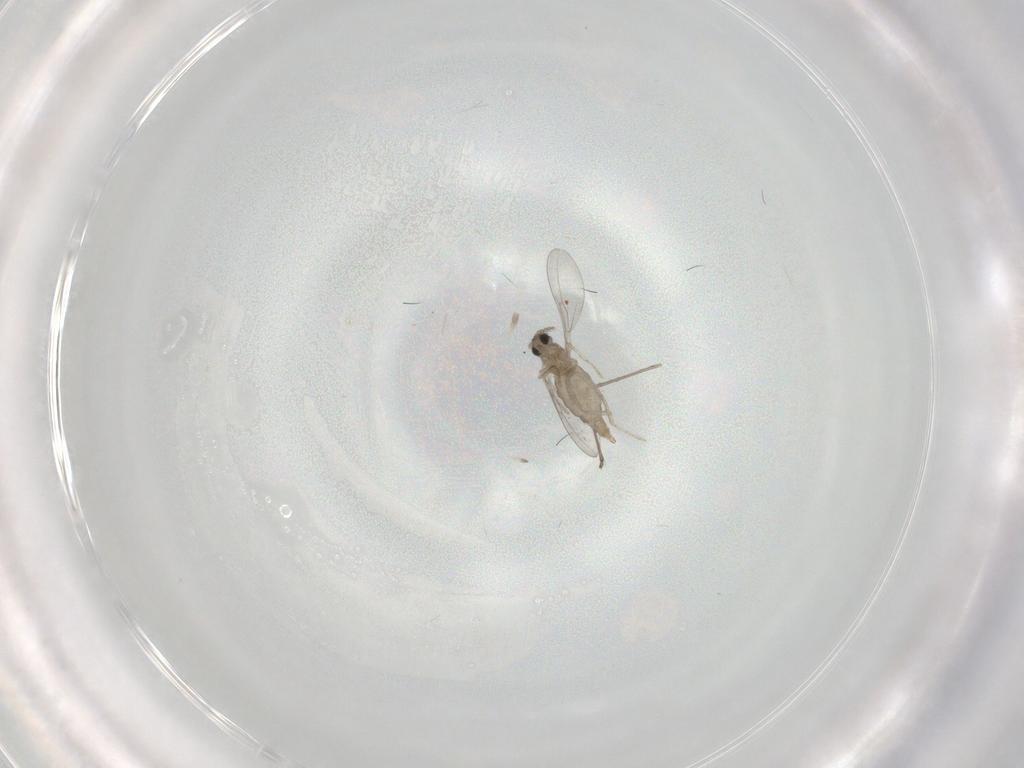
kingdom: Animalia
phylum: Arthropoda
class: Insecta
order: Diptera
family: Cecidomyiidae
